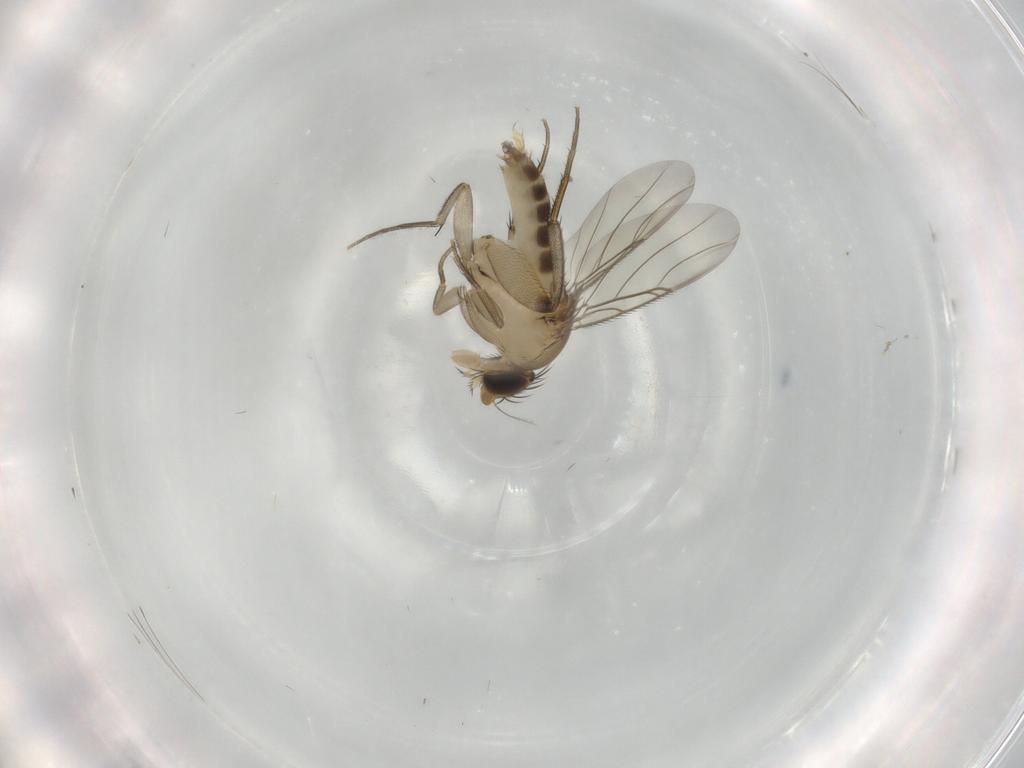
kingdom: Animalia
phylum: Arthropoda
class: Insecta
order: Diptera
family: Phoridae
